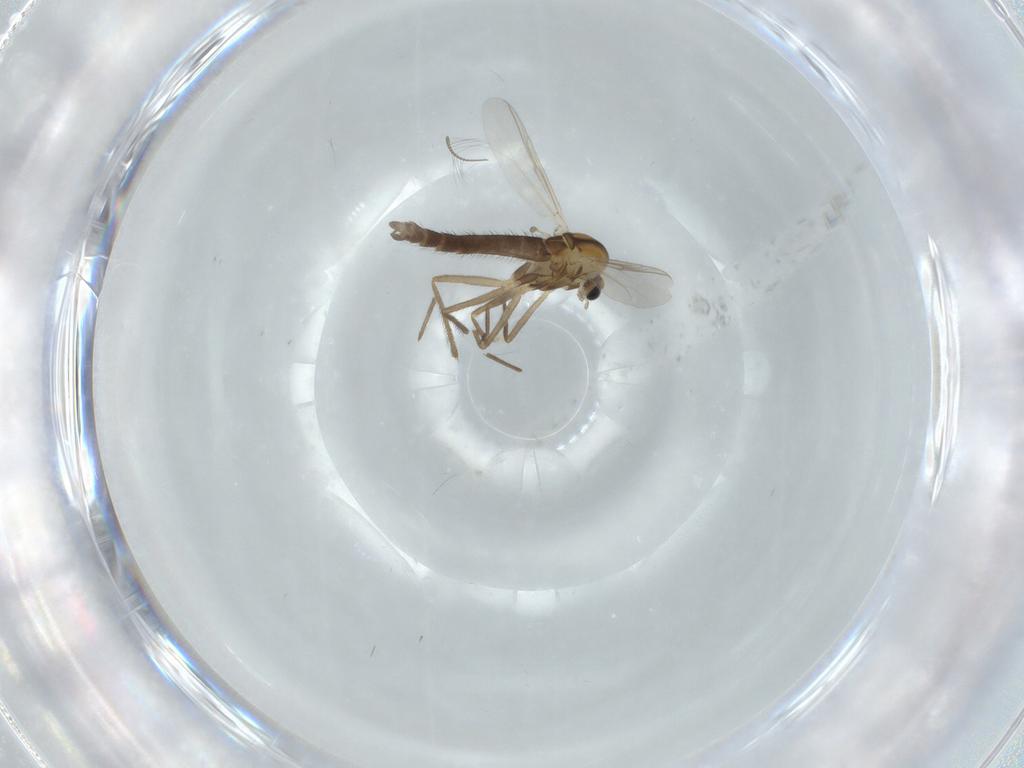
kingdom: Animalia
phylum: Arthropoda
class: Insecta
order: Diptera
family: Chironomidae
